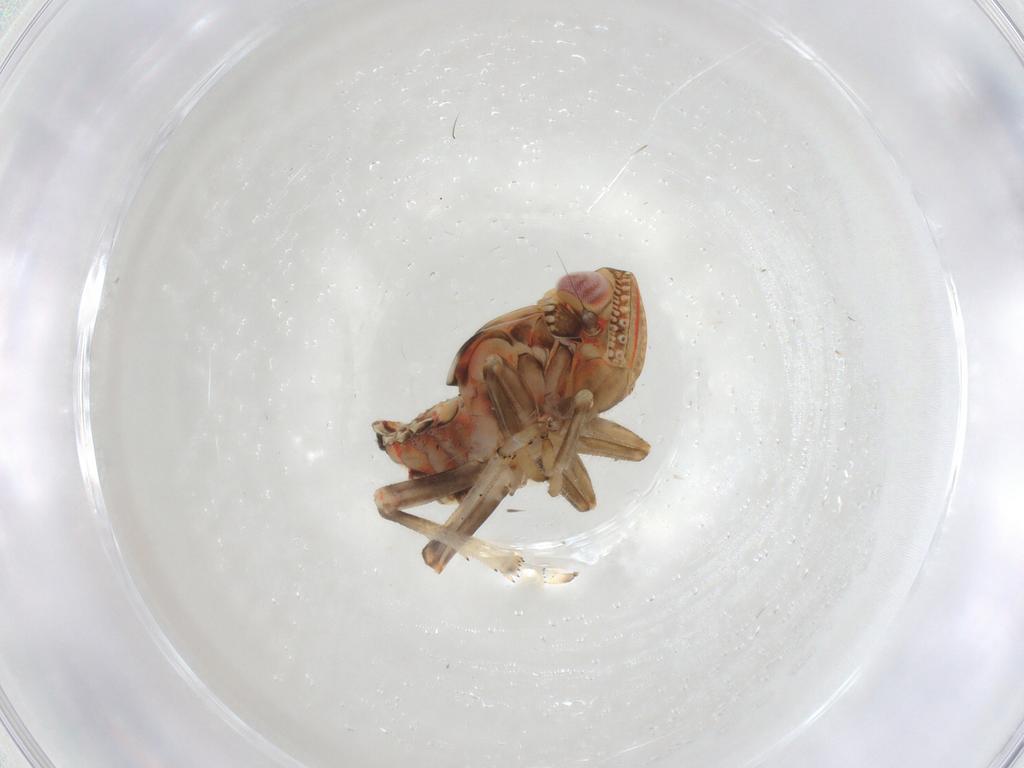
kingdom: Animalia
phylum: Arthropoda
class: Insecta
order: Hemiptera
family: Tropiduchidae
